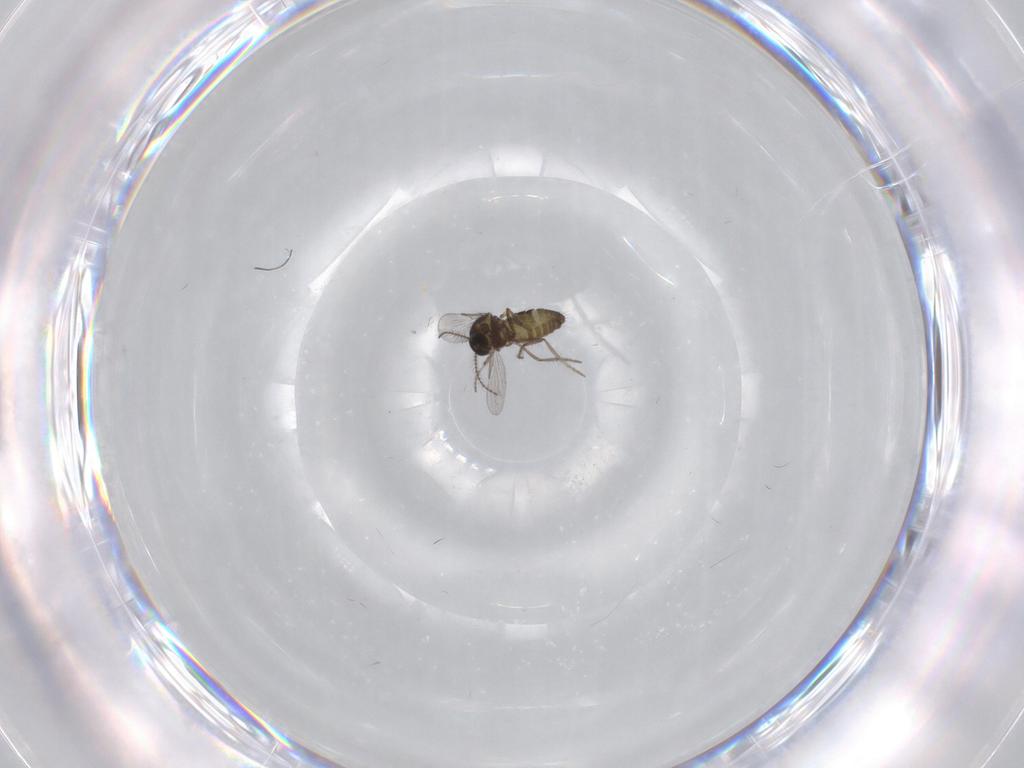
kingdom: Animalia
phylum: Arthropoda
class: Insecta
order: Diptera
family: Ceratopogonidae
